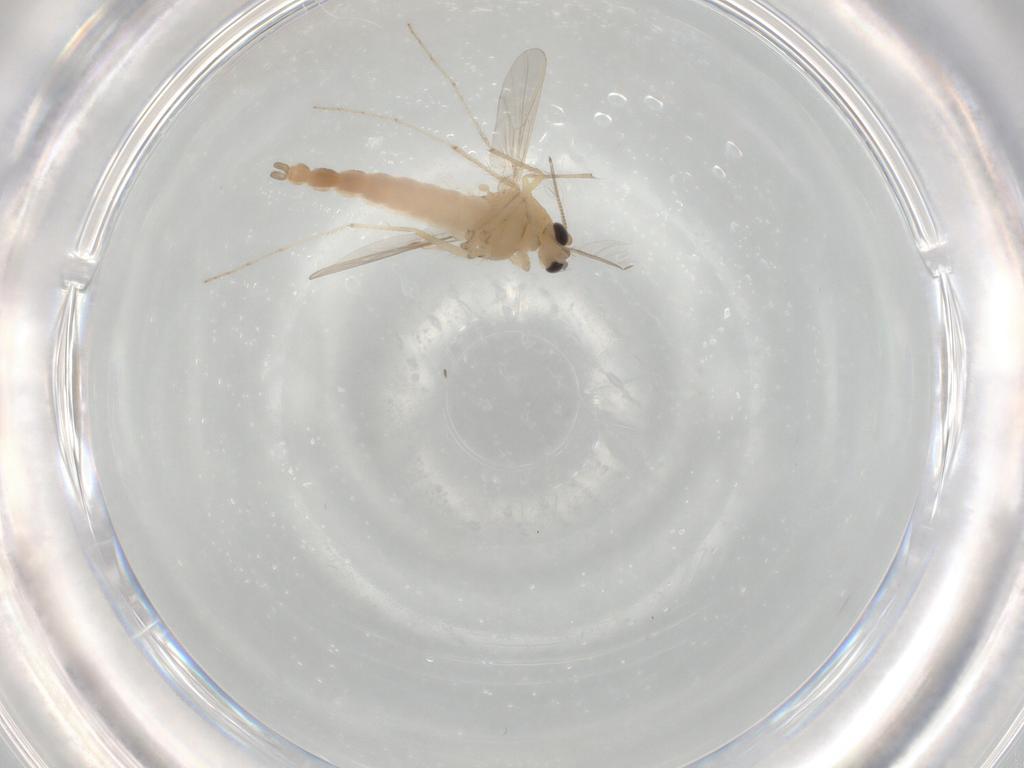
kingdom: Animalia
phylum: Arthropoda
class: Insecta
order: Diptera
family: Chironomidae
